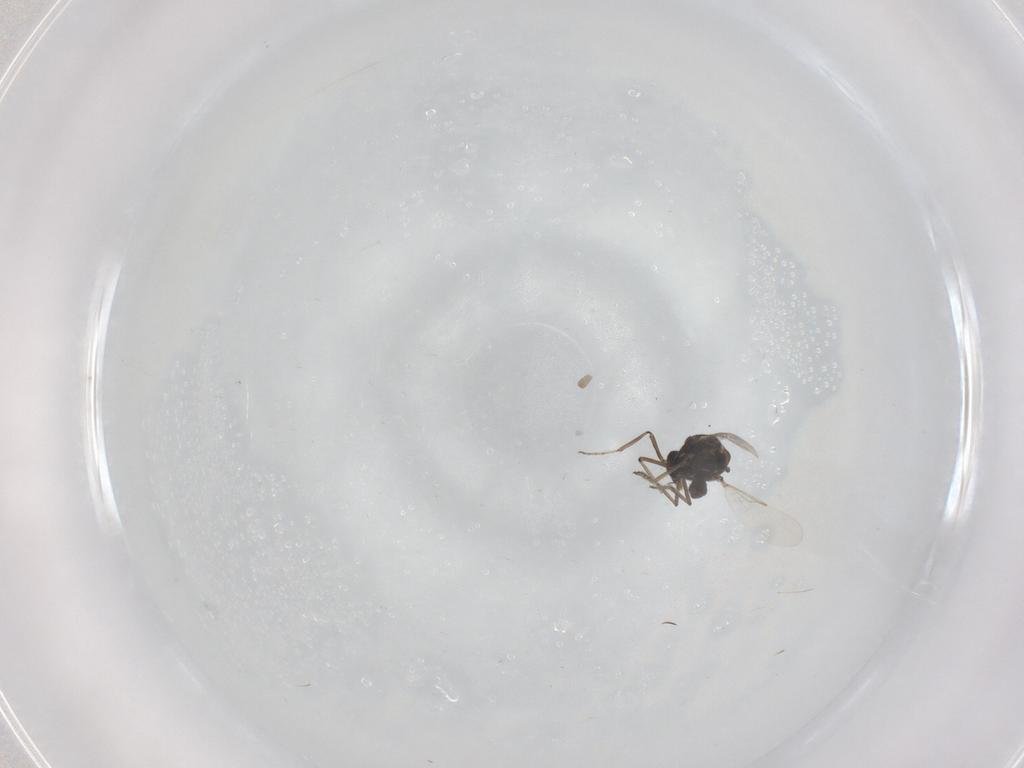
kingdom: Animalia
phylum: Arthropoda
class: Insecta
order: Diptera
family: Ceratopogonidae
